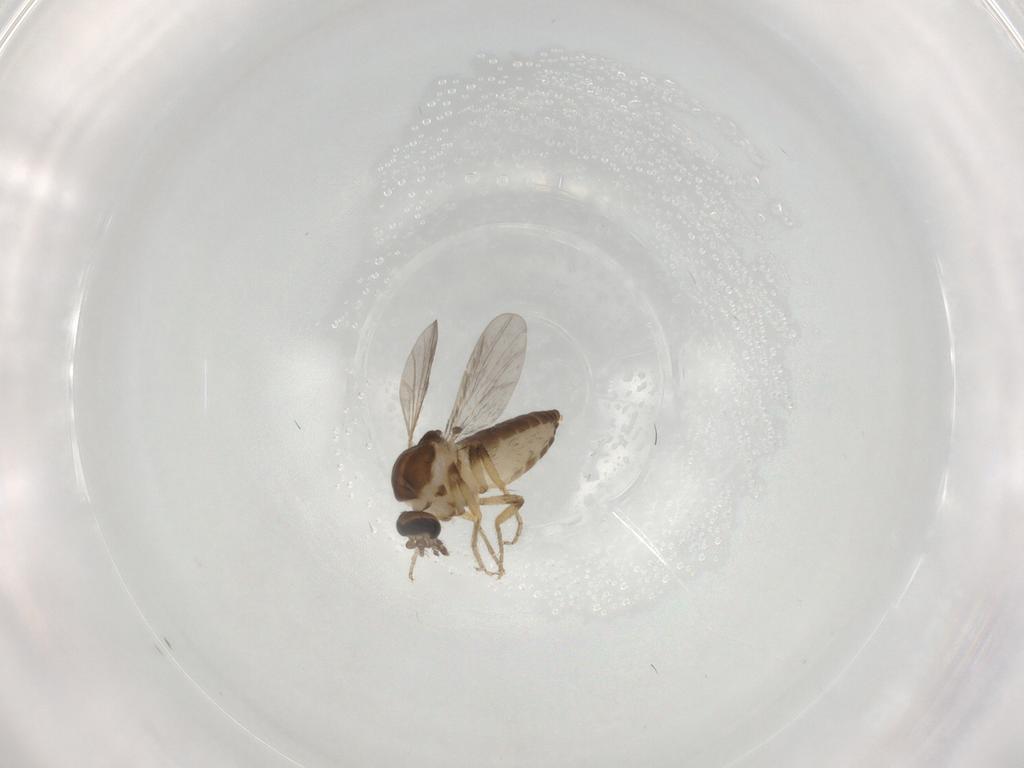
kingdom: Animalia
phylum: Arthropoda
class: Insecta
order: Diptera
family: Ceratopogonidae
